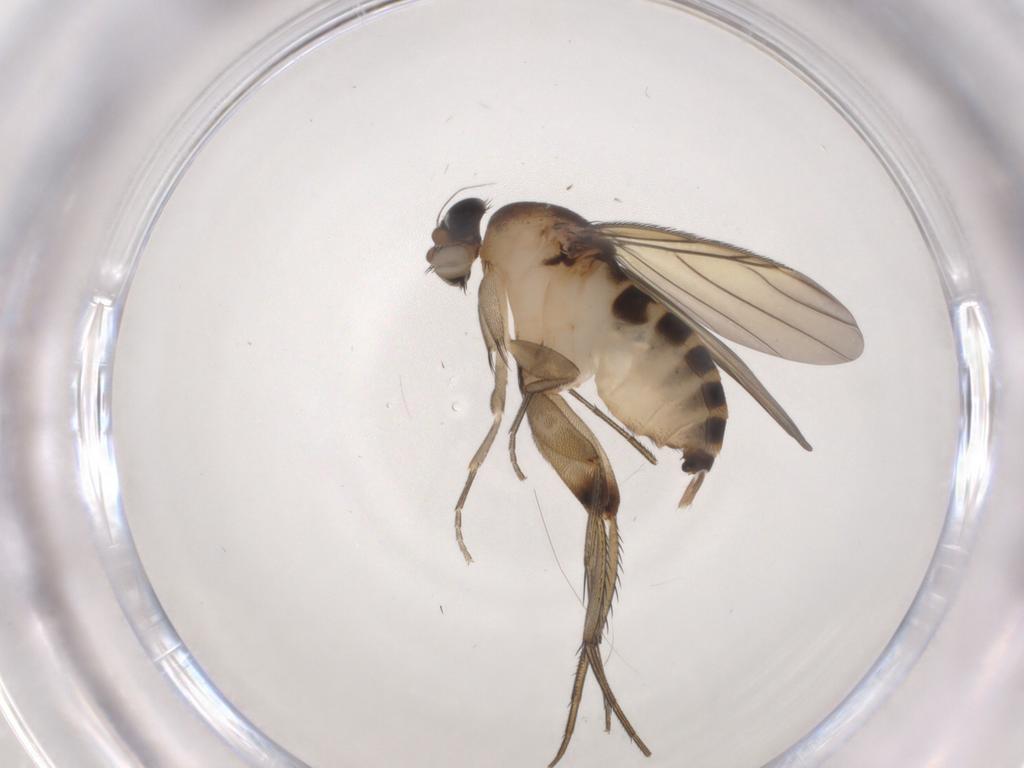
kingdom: Animalia
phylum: Arthropoda
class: Insecta
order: Diptera
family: Phoridae
